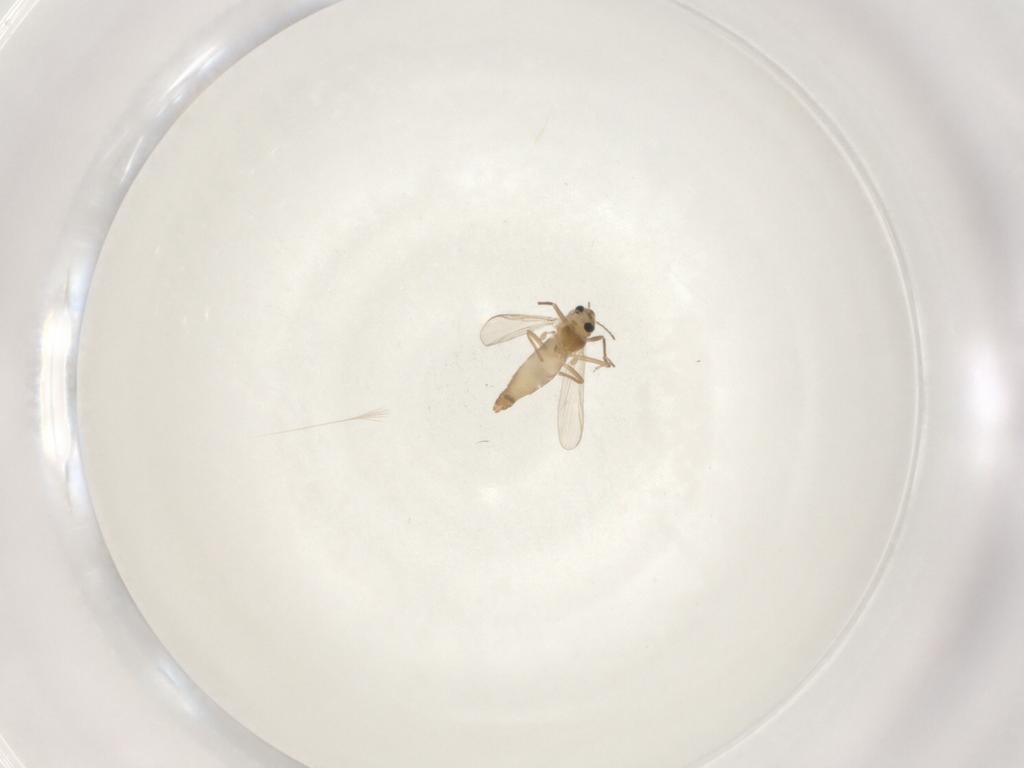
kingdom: Animalia
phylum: Arthropoda
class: Insecta
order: Diptera
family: Chironomidae
